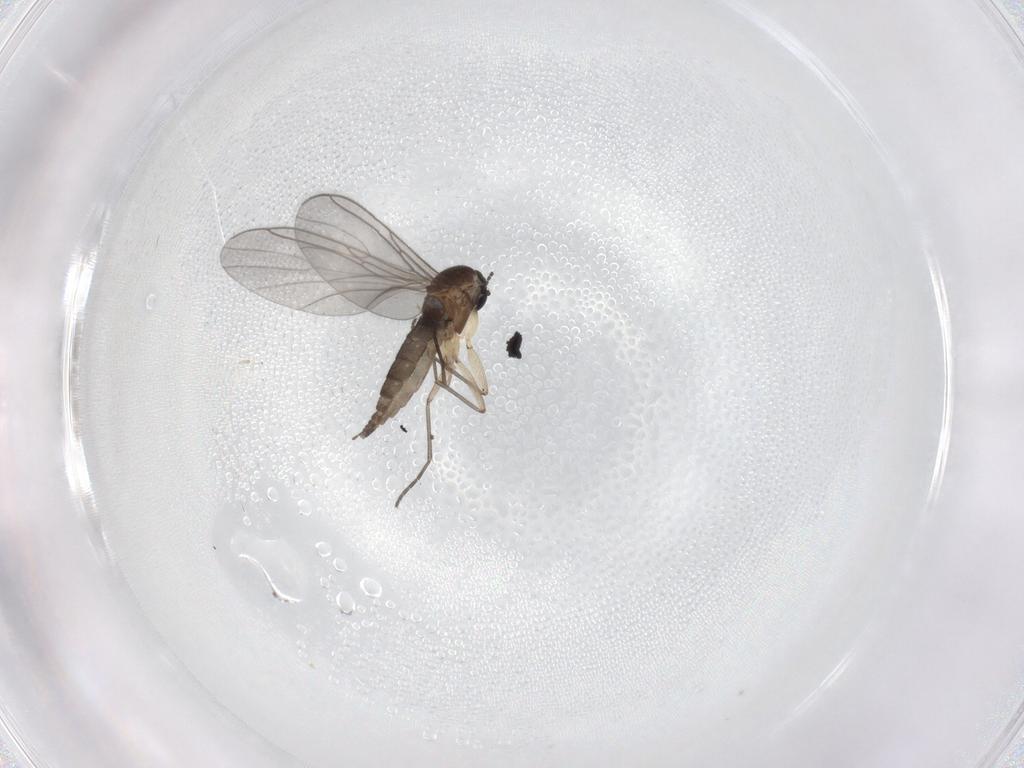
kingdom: Animalia
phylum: Arthropoda
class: Insecta
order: Diptera
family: Sciaridae
